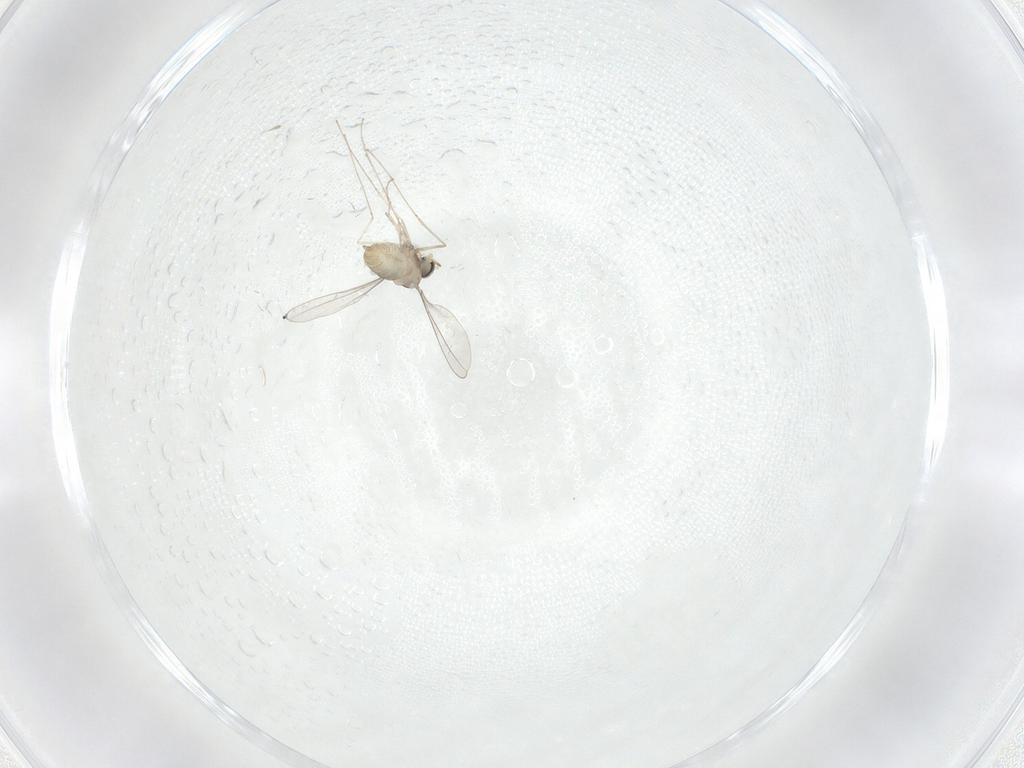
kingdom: Animalia
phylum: Arthropoda
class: Insecta
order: Diptera
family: Cecidomyiidae
